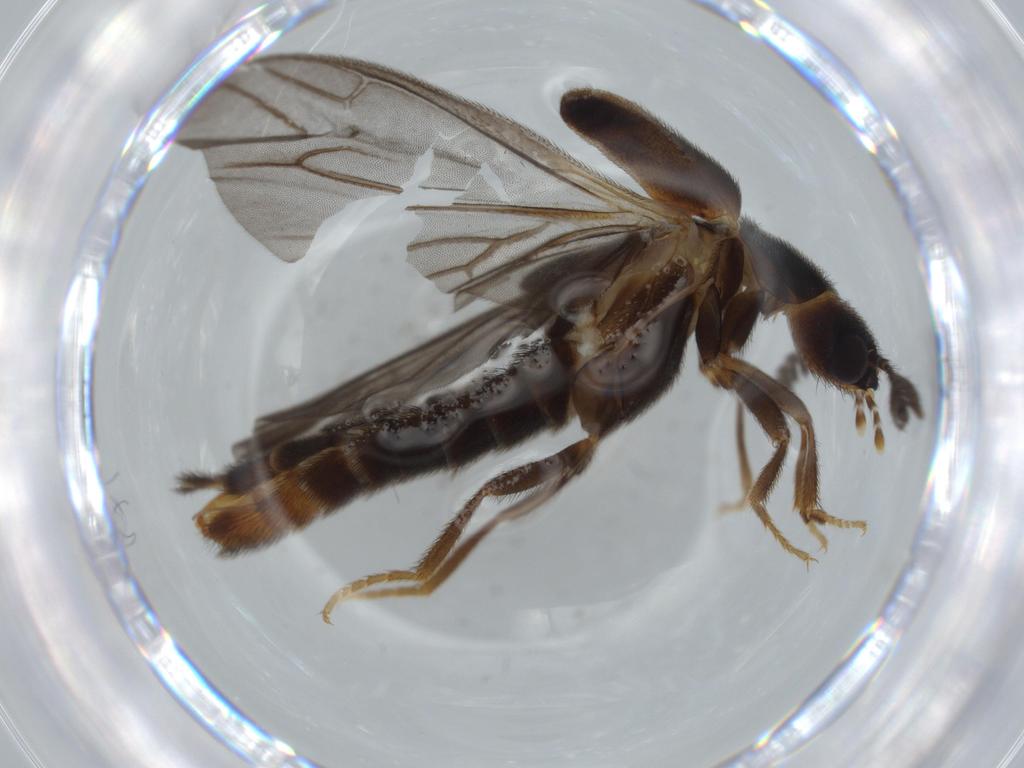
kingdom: Animalia
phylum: Arthropoda
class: Insecta
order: Coleoptera
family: Phengodidae
